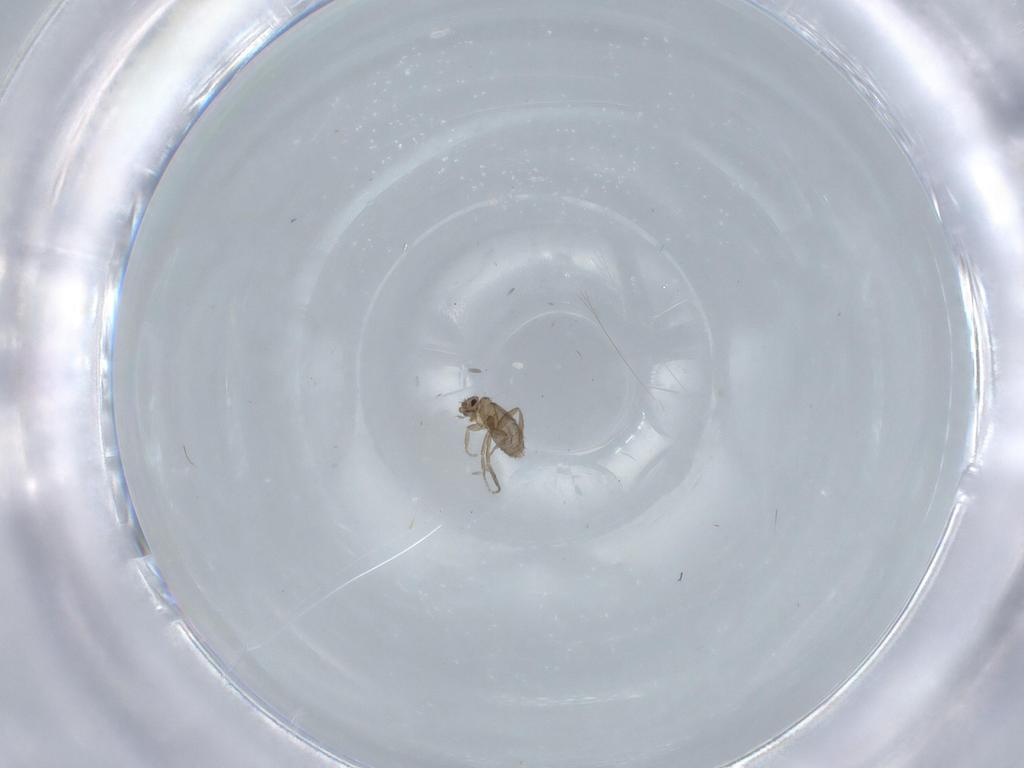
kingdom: Animalia
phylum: Arthropoda
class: Insecta
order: Diptera
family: Phoridae
